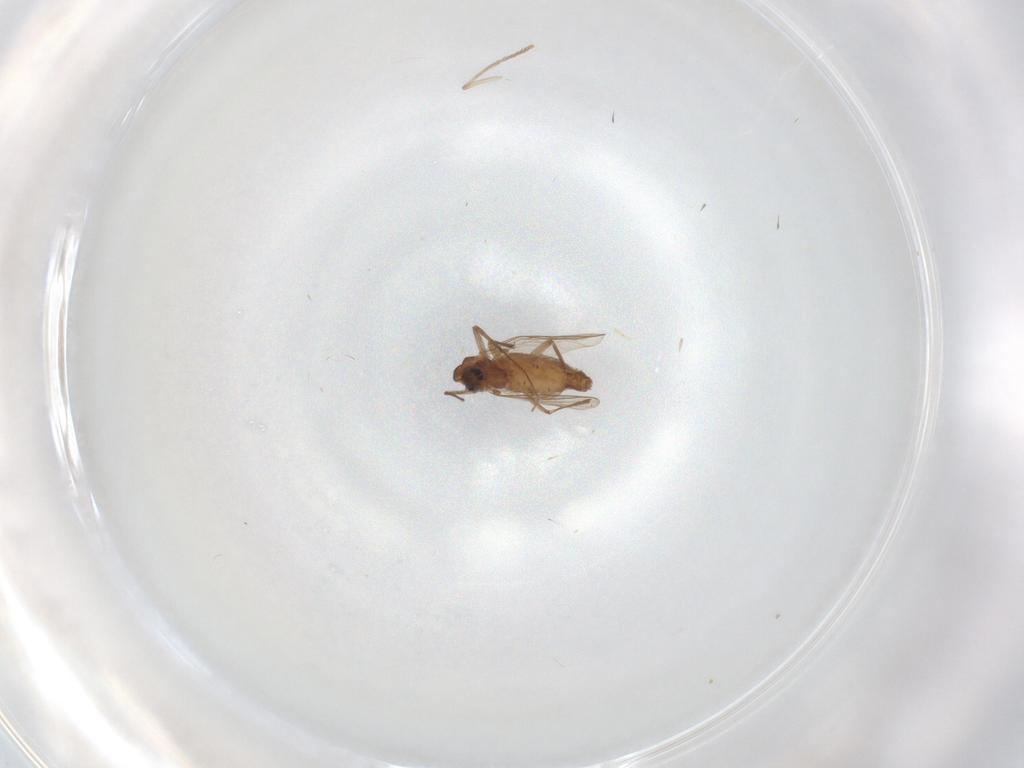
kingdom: Animalia
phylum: Arthropoda
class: Insecta
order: Diptera
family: Chironomidae
